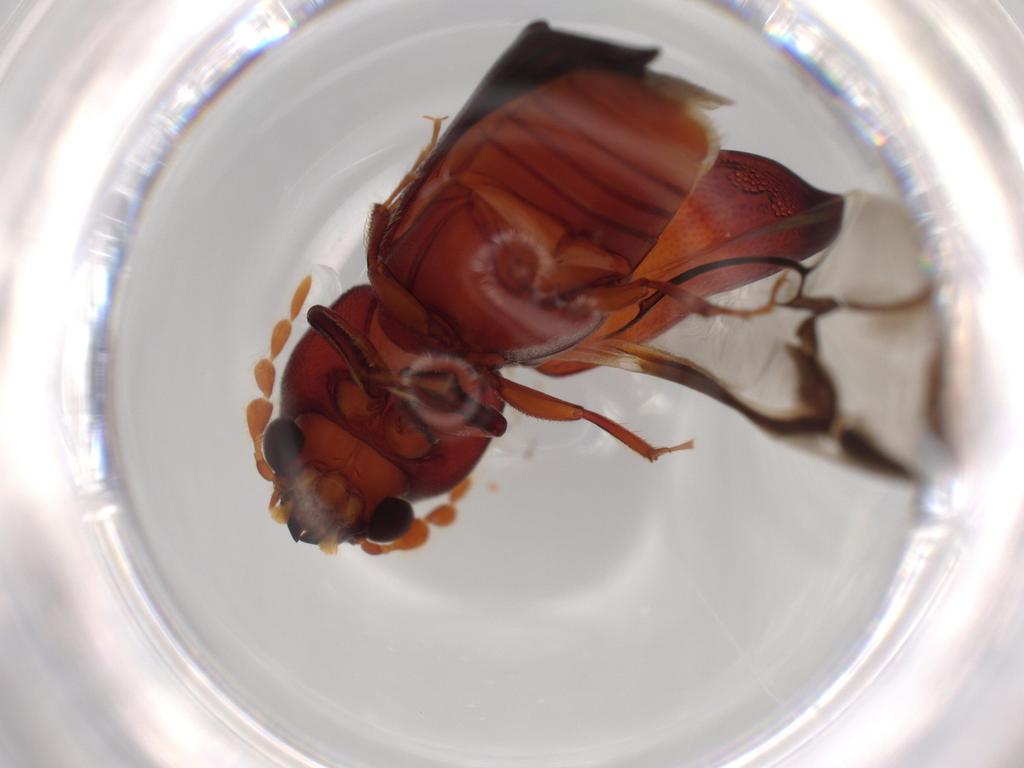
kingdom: Animalia
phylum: Arthropoda
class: Insecta
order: Coleoptera
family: Bostrichidae
